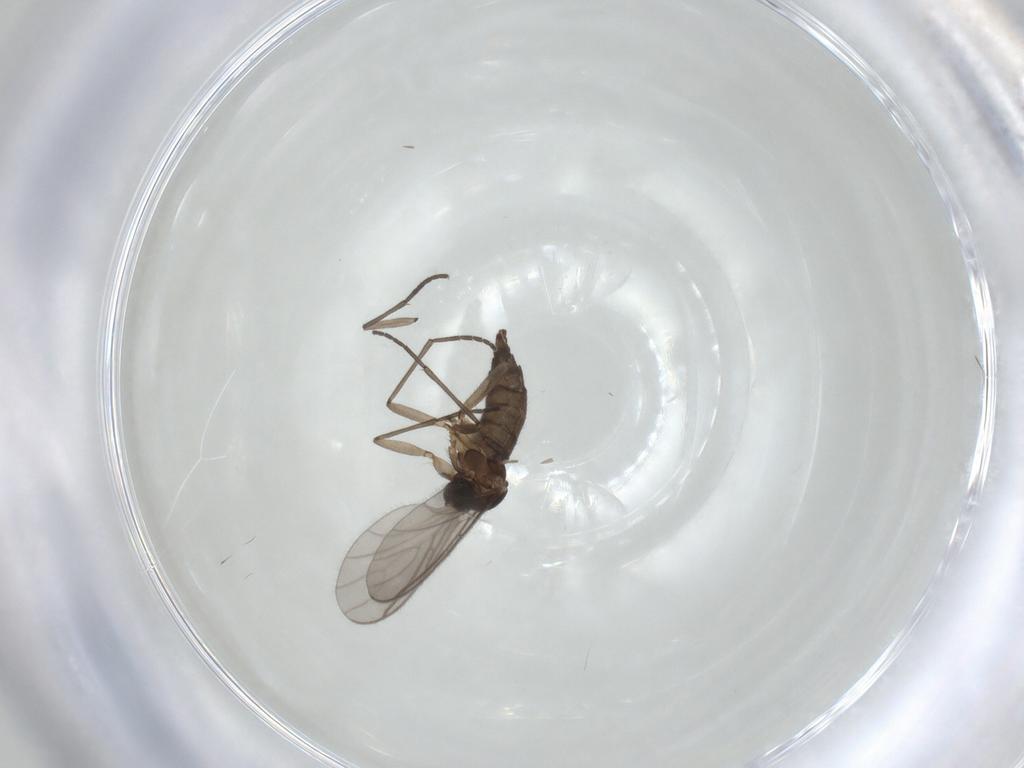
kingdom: Animalia
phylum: Arthropoda
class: Insecta
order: Diptera
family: Sciaridae
